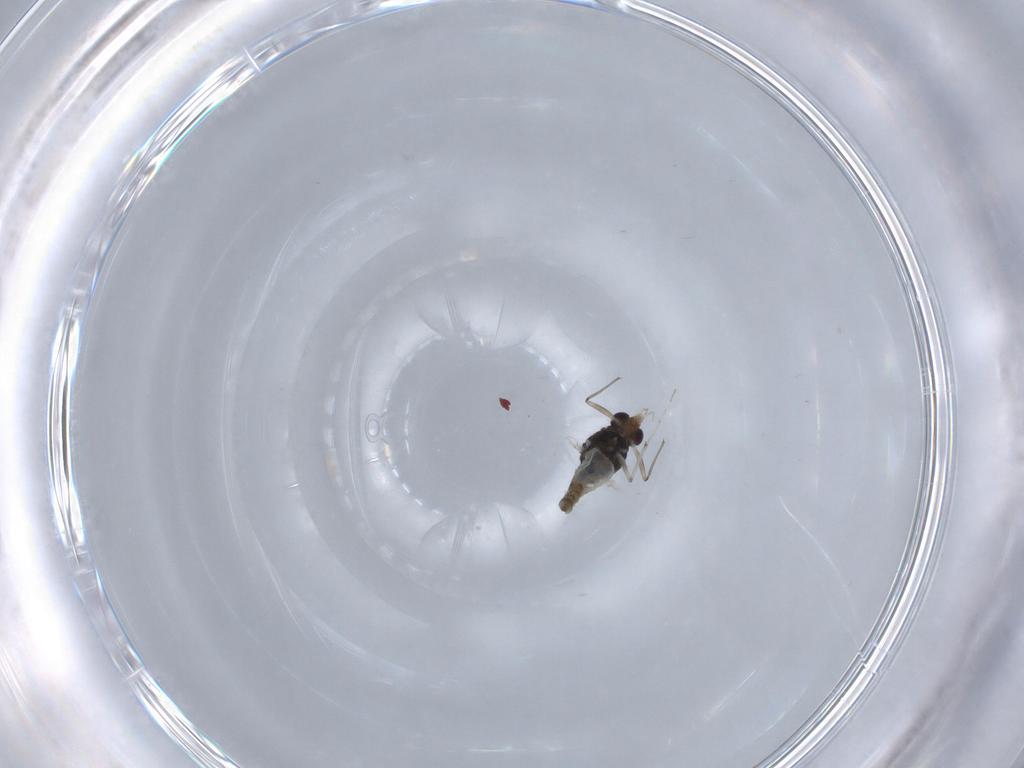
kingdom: Animalia
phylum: Arthropoda
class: Insecta
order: Diptera
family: Chironomidae
